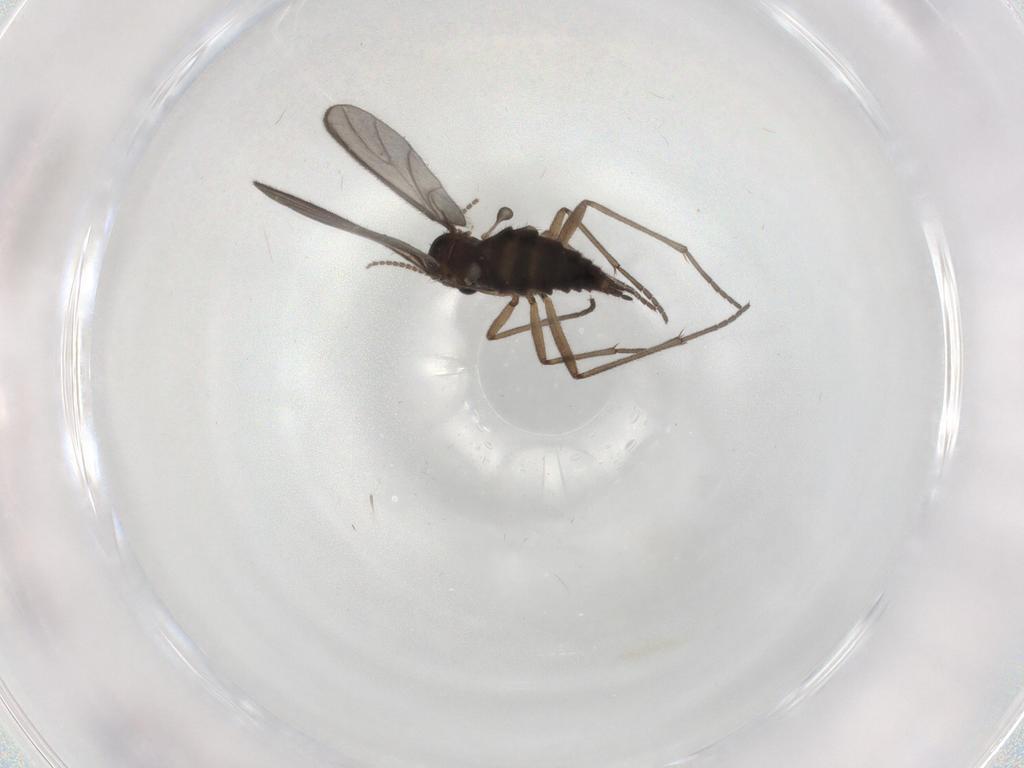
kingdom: Animalia
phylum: Arthropoda
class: Insecta
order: Diptera
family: Sciaridae
